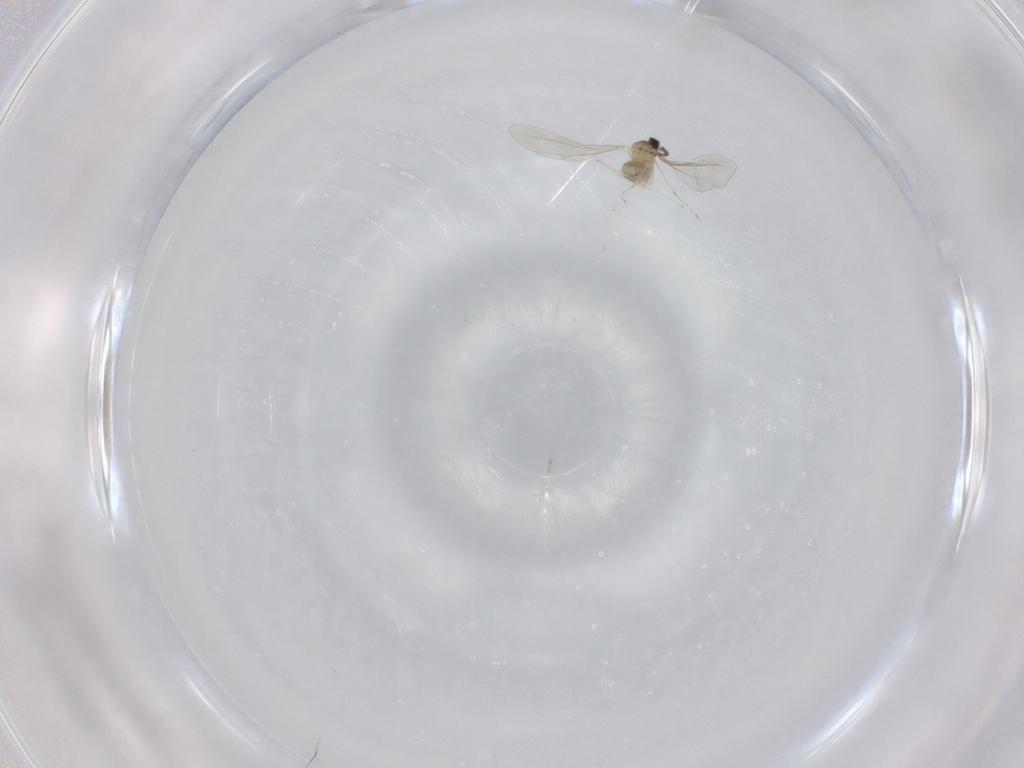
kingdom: Animalia
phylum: Arthropoda
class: Insecta
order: Diptera
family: Cecidomyiidae
